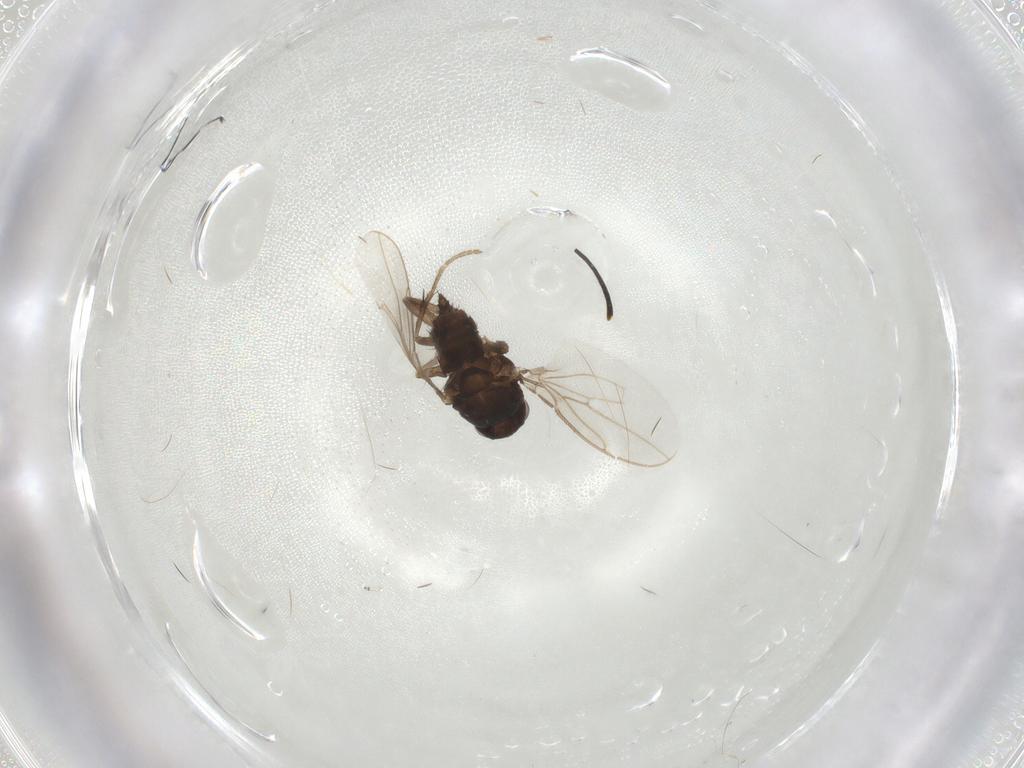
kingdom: Animalia
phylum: Arthropoda
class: Insecta
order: Diptera
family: Sphaeroceridae
